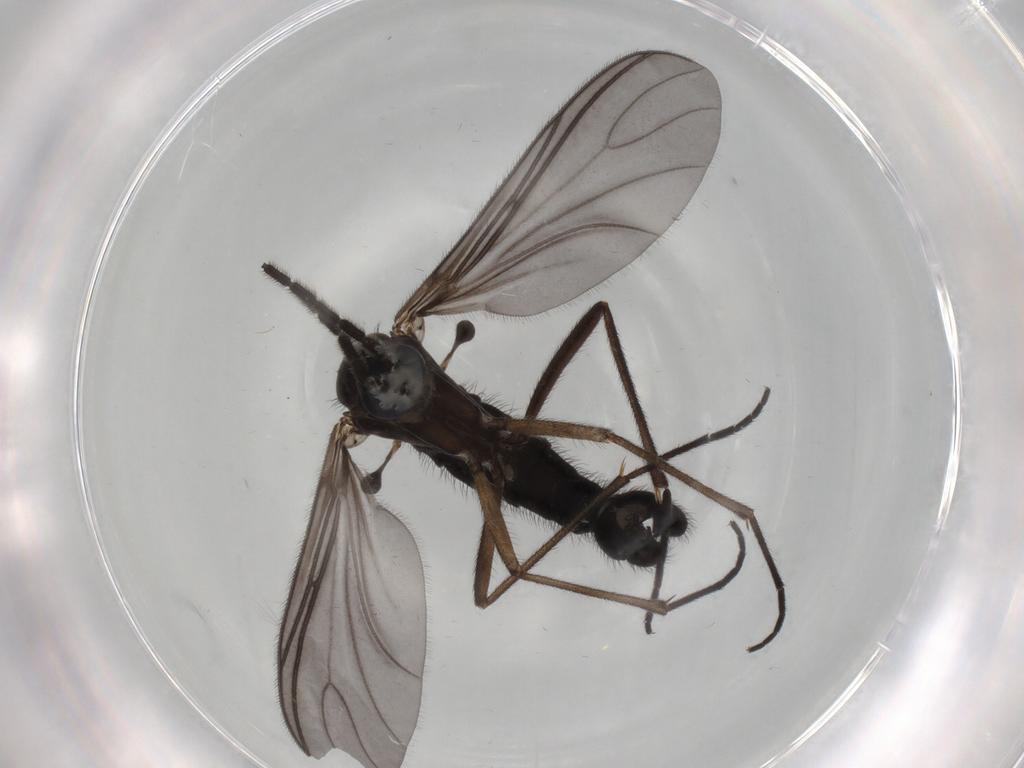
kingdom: Animalia
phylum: Arthropoda
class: Insecta
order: Diptera
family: Sciaridae
